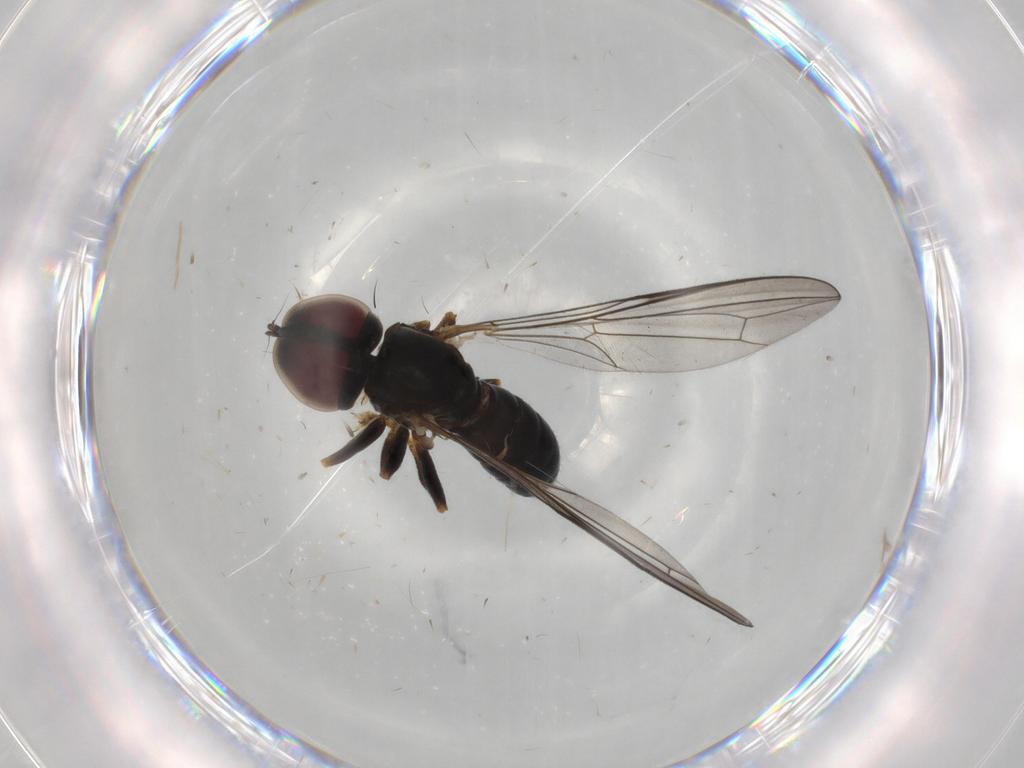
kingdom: Animalia
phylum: Arthropoda
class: Insecta
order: Diptera
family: Pipunculidae
